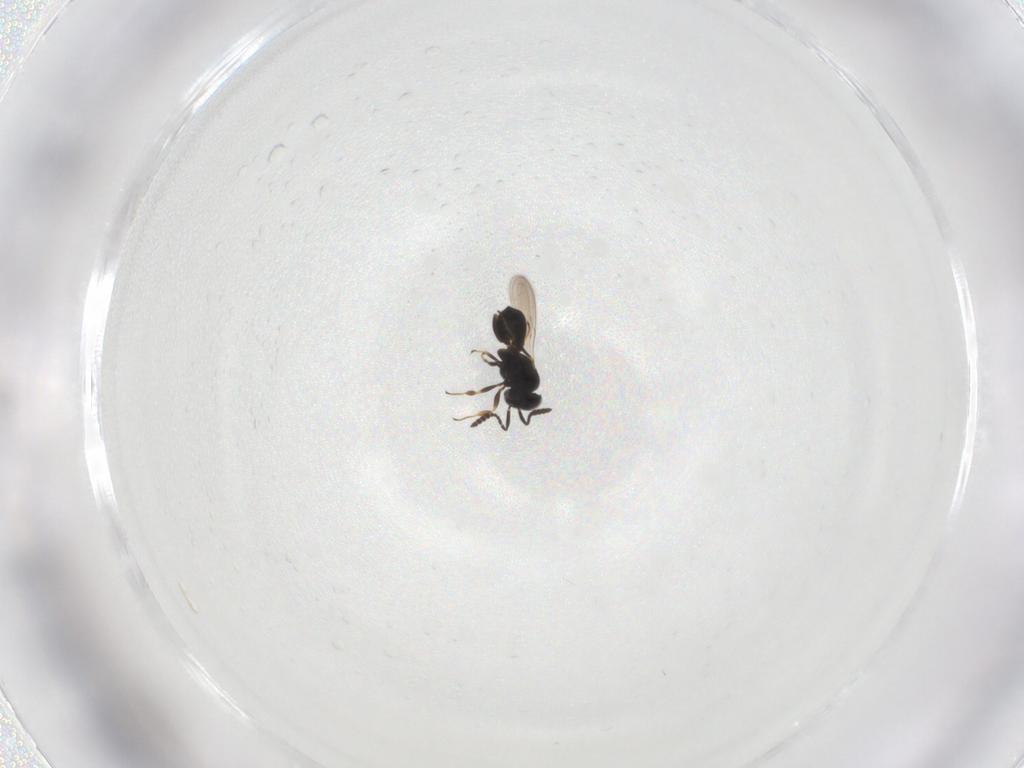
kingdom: Animalia
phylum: Arthropoda
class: Insecta
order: Hymenoptera
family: Scelionidae
